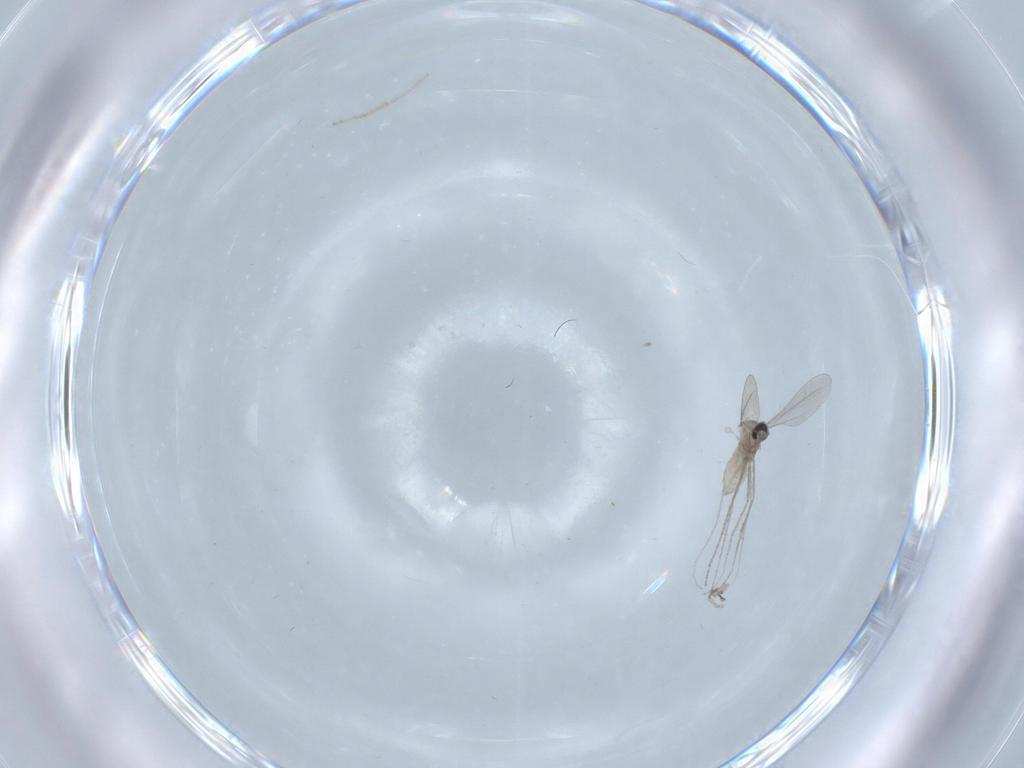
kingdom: Animalia
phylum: Arthropoda
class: Insecta
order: Diptera
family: Cecidomyiidae
